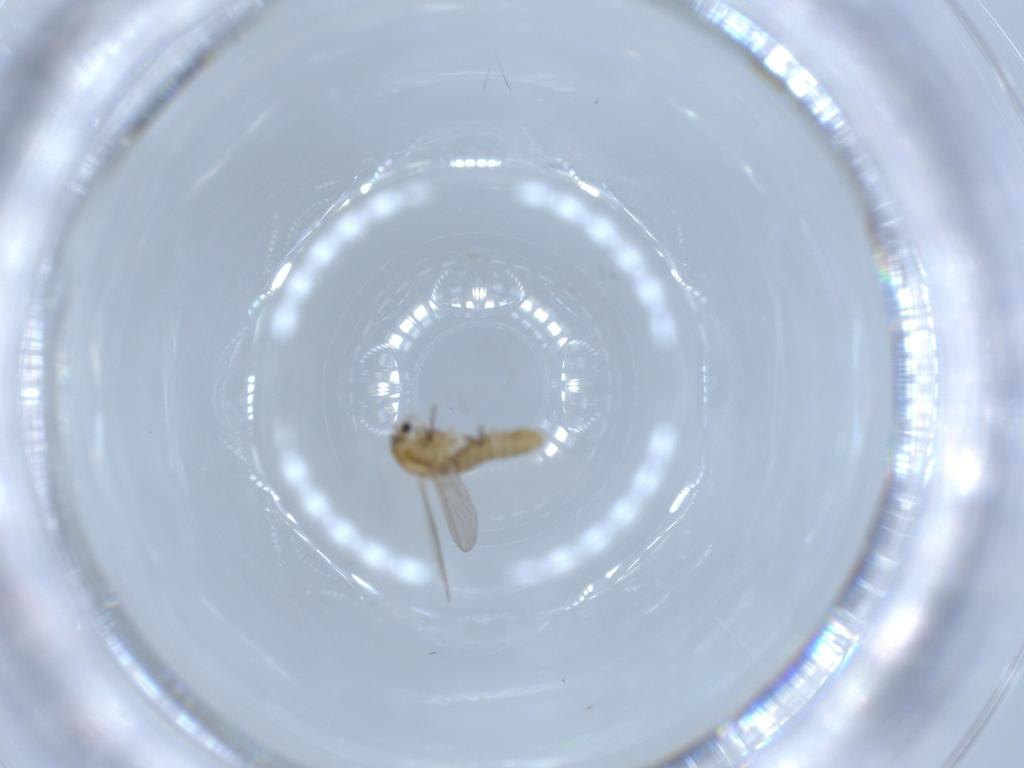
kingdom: Animalia
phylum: Arthropoda
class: Insecta
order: Diptera
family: Chironomidae
